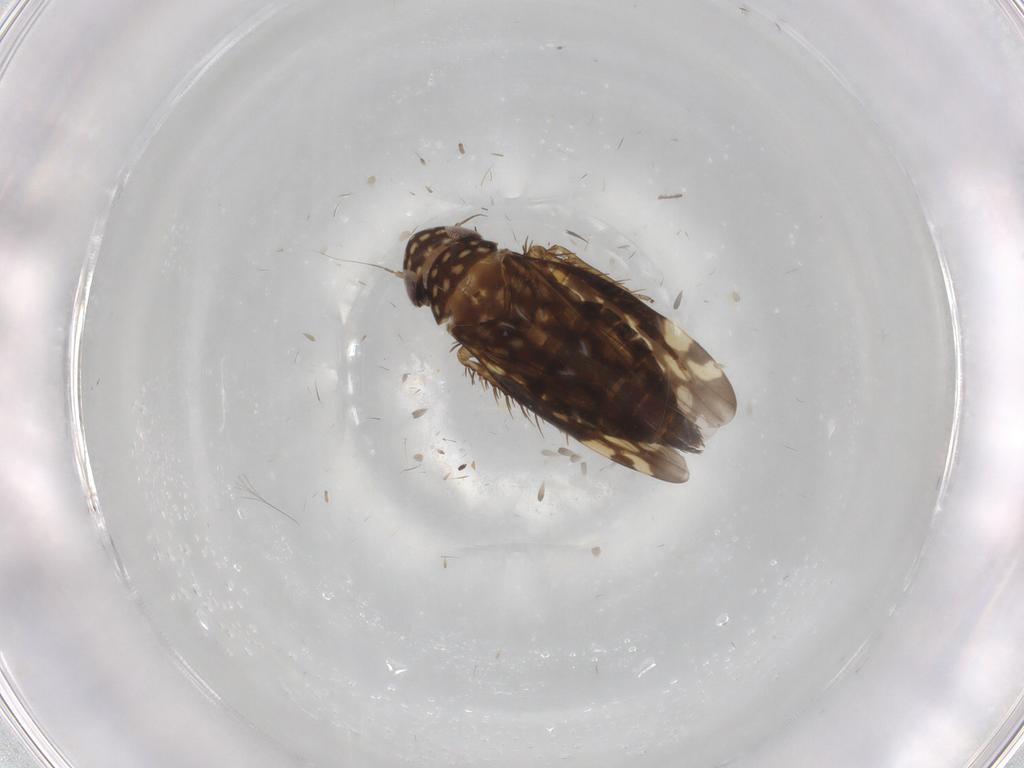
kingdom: Animalia
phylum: Arthropoda
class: Insecta
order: Hemiptera
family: Cicadellidae
